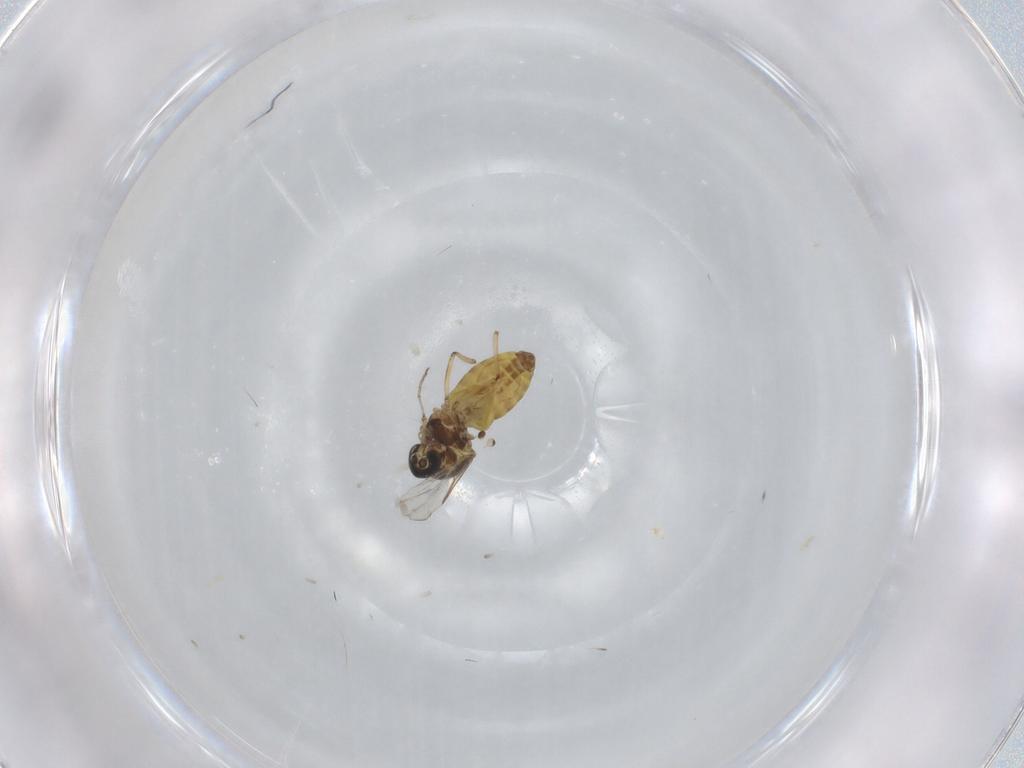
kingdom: Animalia
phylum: Arthropoda
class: Insecta
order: Diptera
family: Ceratopogonidae
